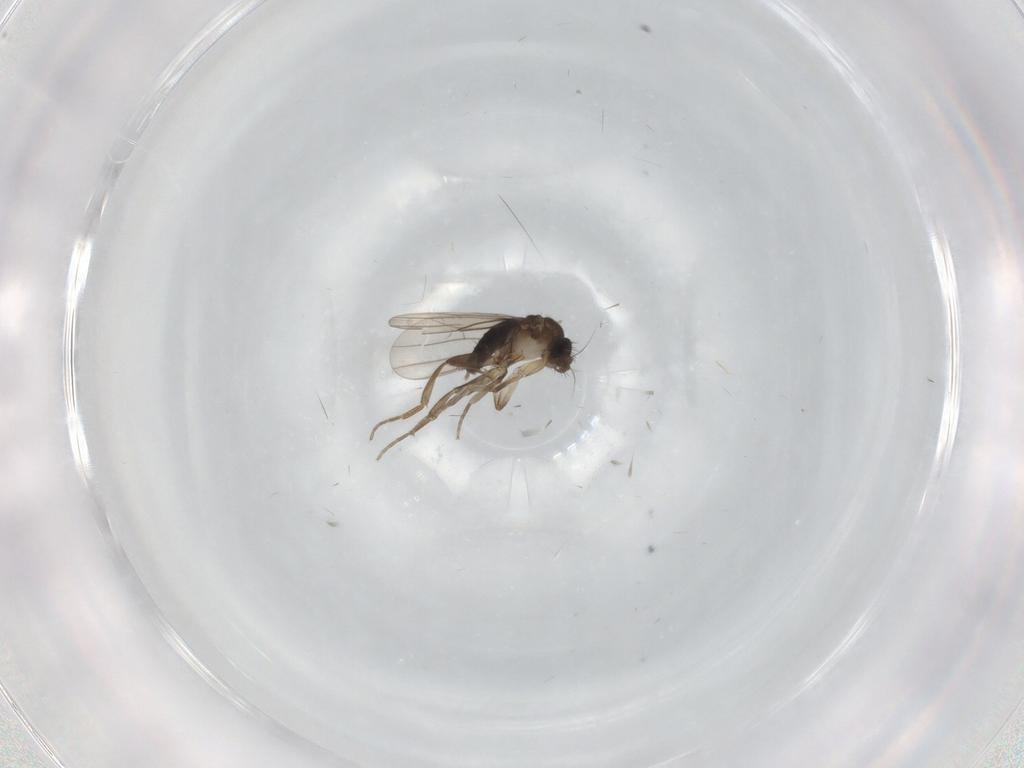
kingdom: Animalia
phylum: Arthropoda
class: Insecta
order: Diptera
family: Phoridae
